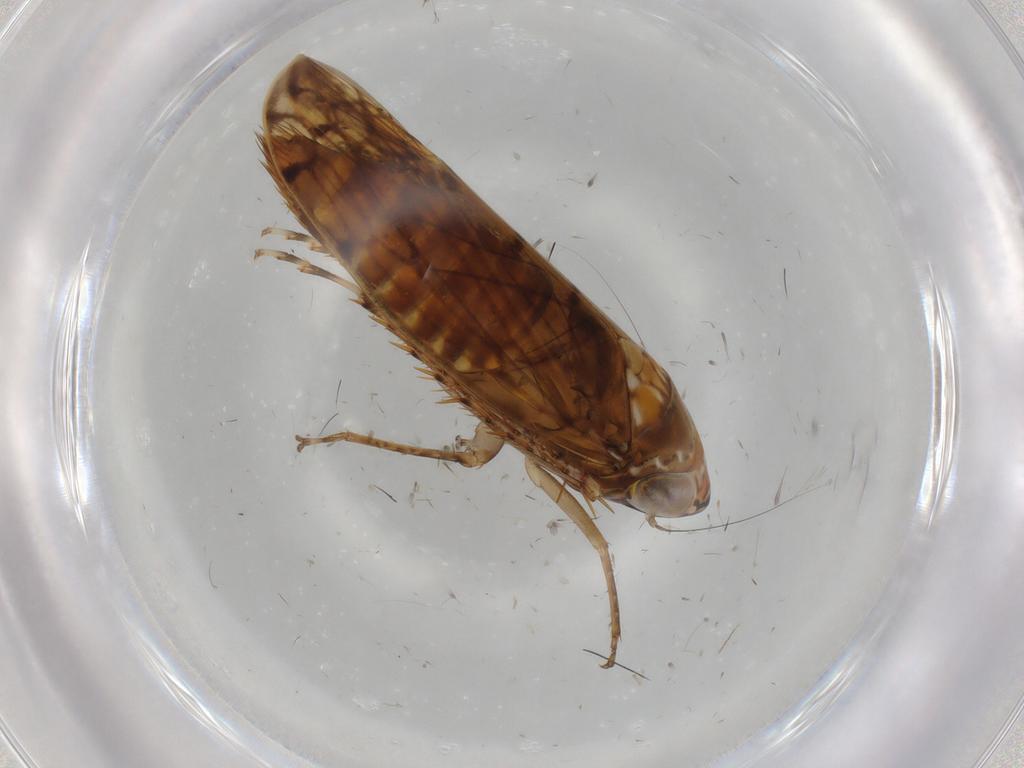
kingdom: Animalia
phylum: Arthropoda
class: Insecta
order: Hemiptera
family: Cicadellidae
